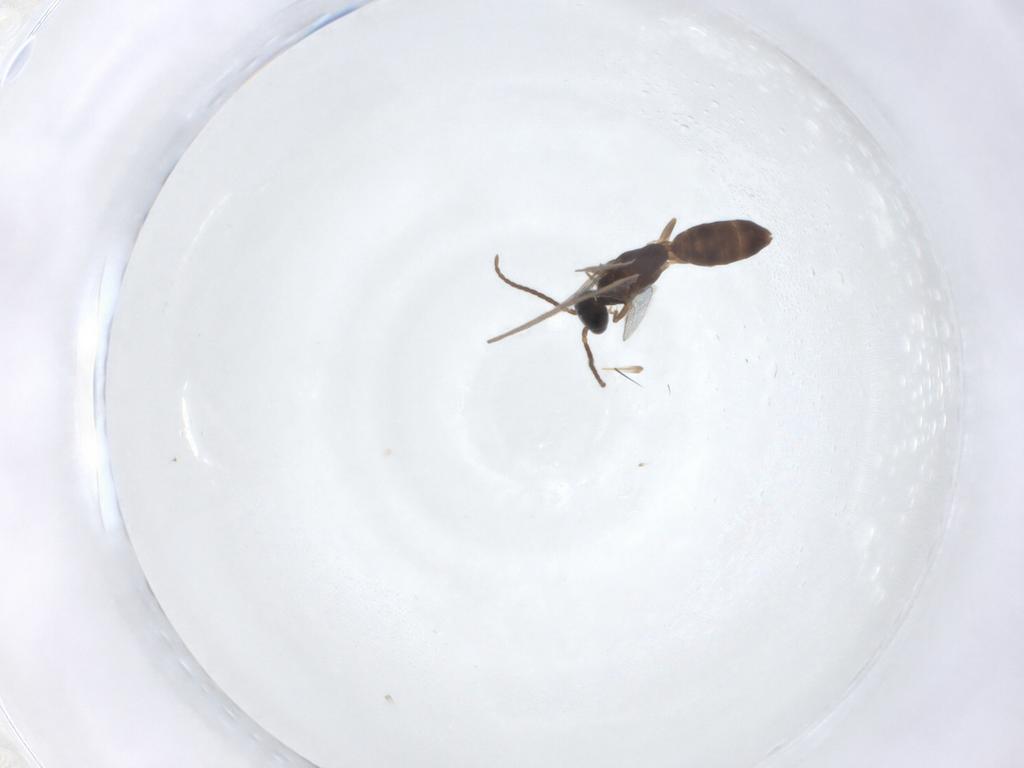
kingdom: Animalia
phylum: Arthropoda
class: Insecta
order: Hymenoptera
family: Bethylidae
